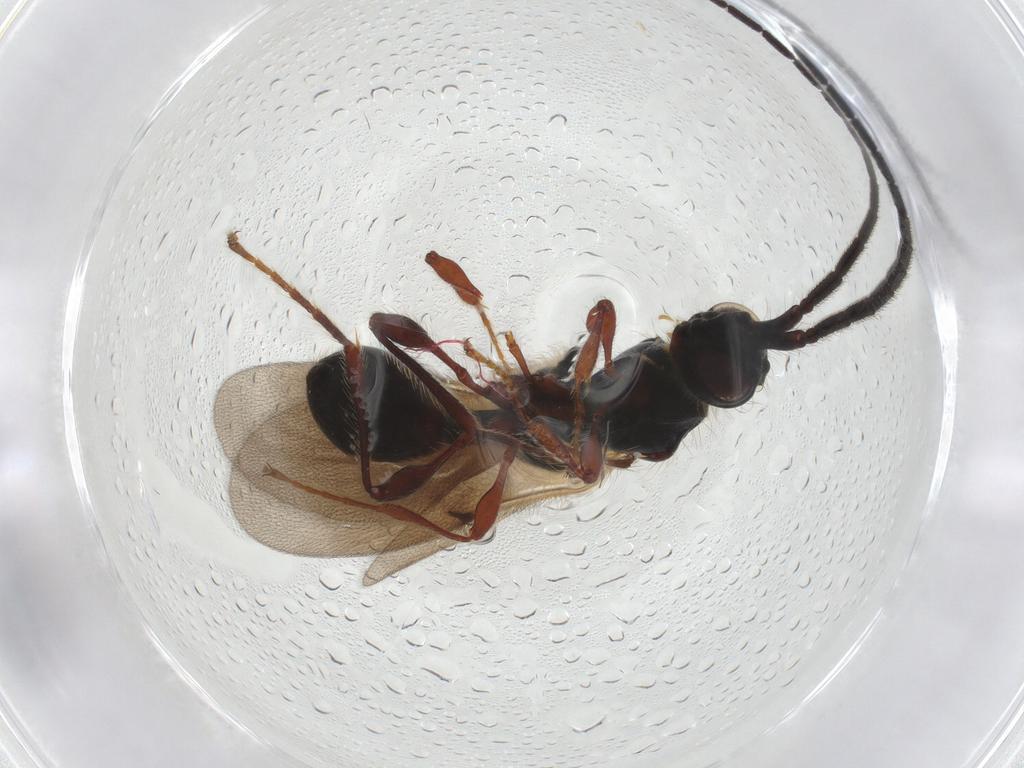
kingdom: Animalia
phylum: Arthropoda
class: Insecta
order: Hymenoptera
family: Diapriidae
